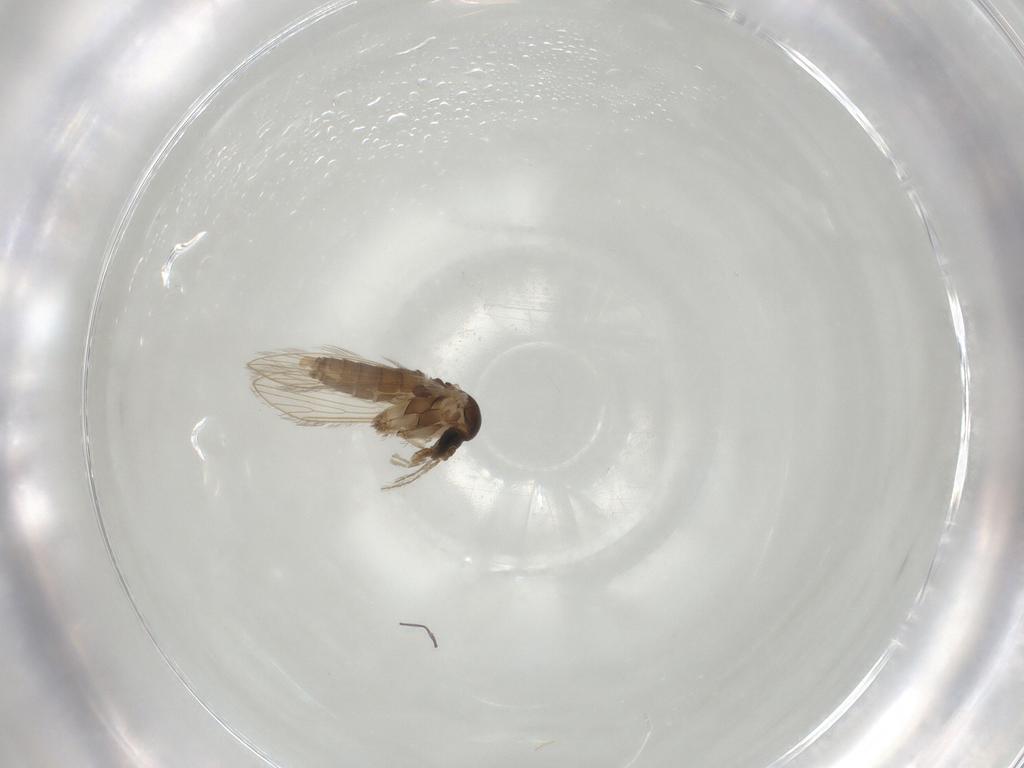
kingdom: Animalia
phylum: Arthropoda
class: Insecta
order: Diptera
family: Psychodidae
